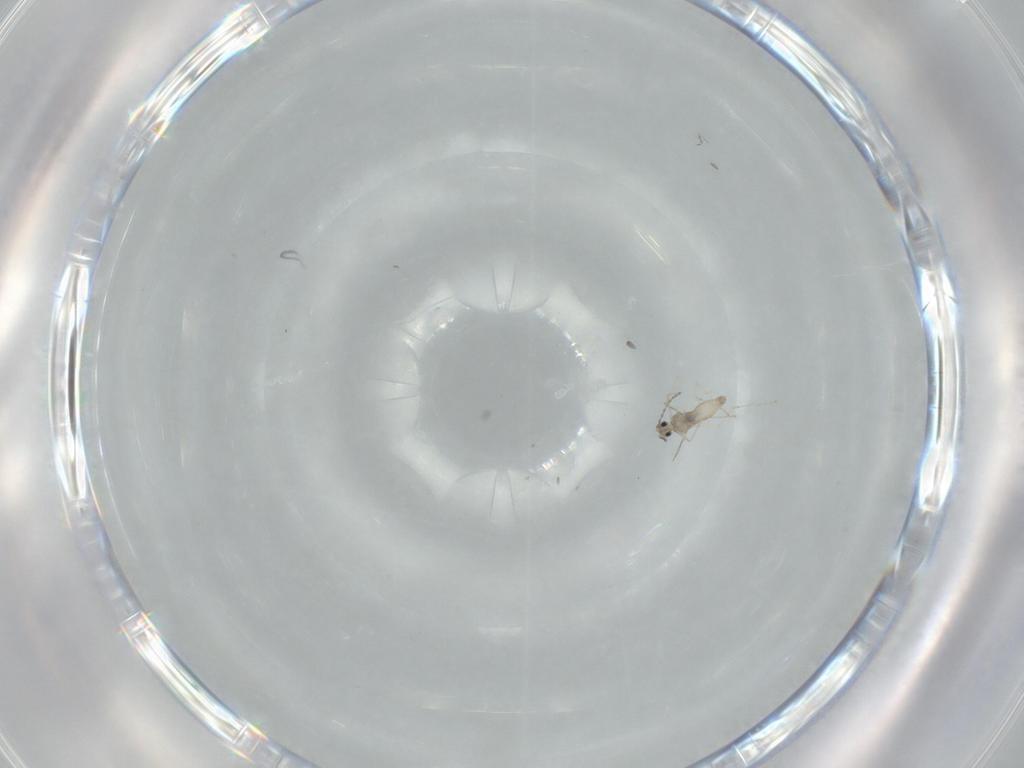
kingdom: Animalia
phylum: Arthropoda
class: Insecta
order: Diptera
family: Cecidomyiidae
